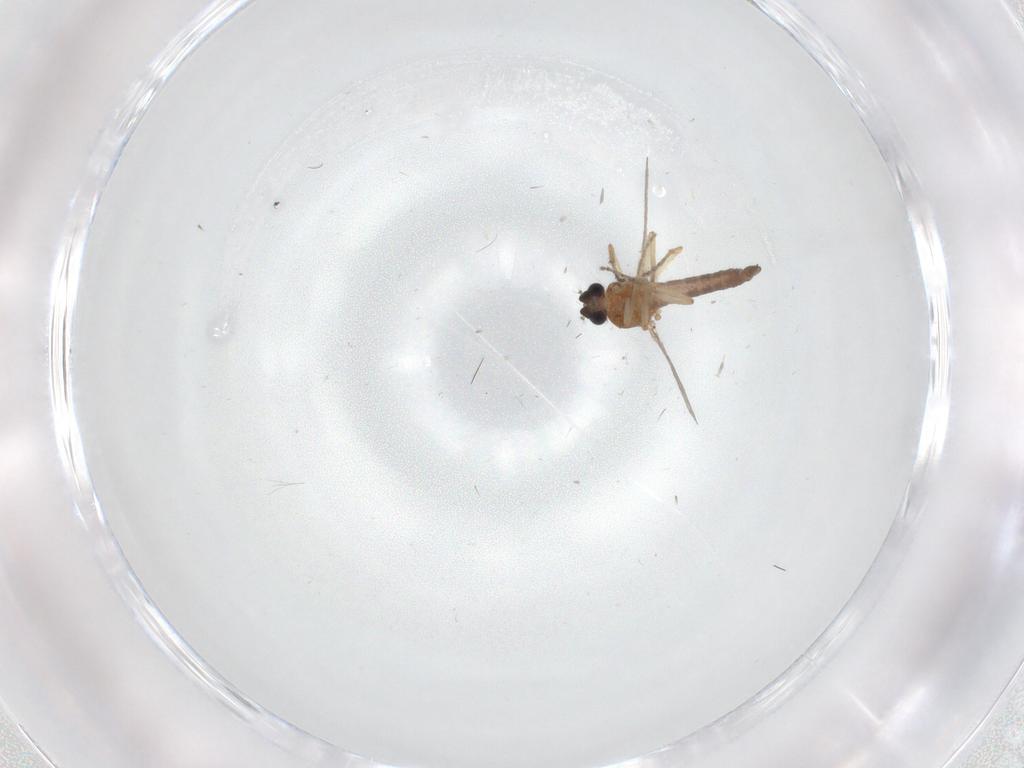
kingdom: Animalia
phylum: Arthropoda
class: Insecta
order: Diptera
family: Ceratopogonidae
